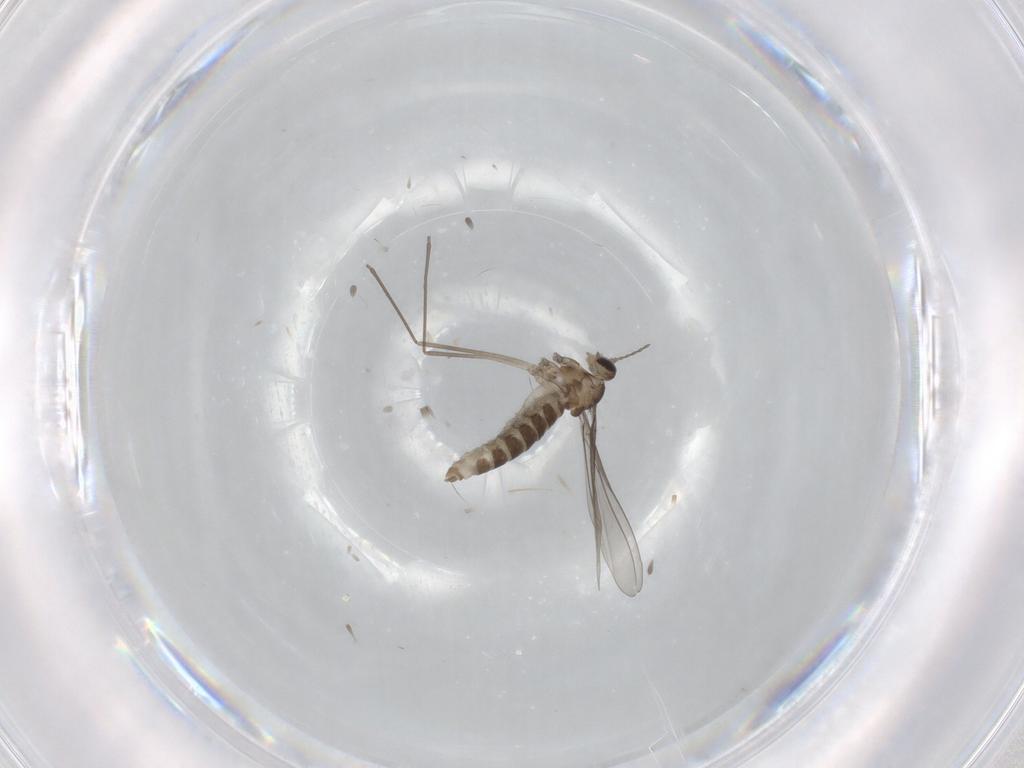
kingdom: Animalia
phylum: Arthropoda
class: Insecta
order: Diptera
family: Cecidomyiidae
